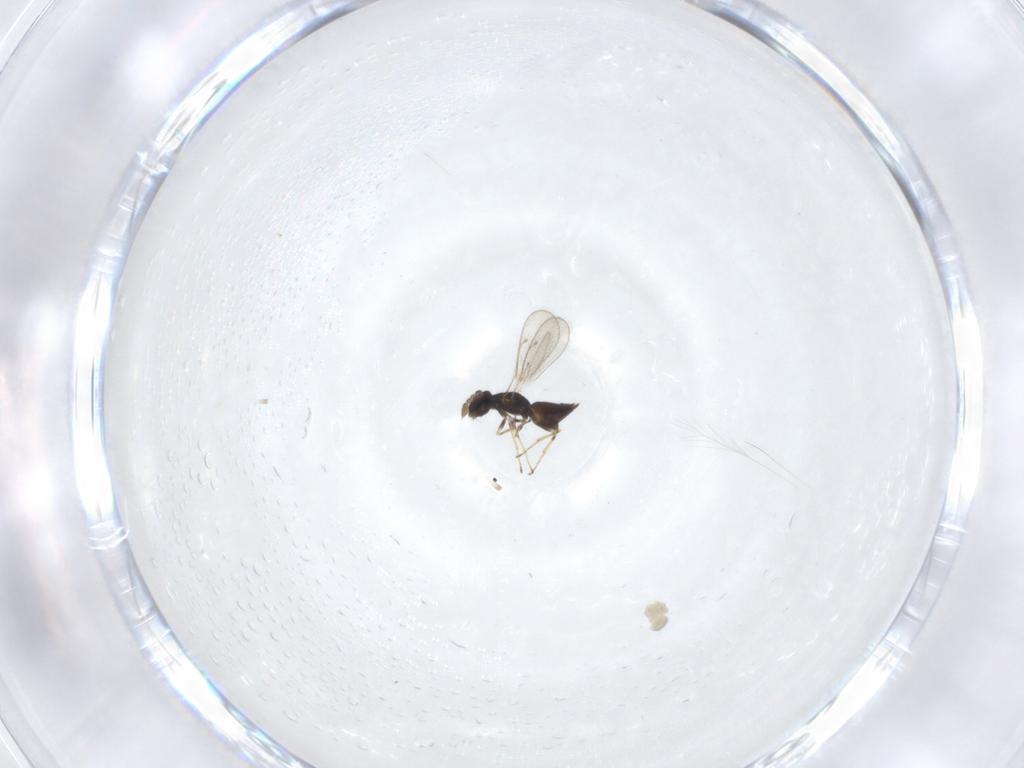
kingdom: Animalia
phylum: Arthropoda
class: Insecta
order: Hymenoptera
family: Eulophidae
